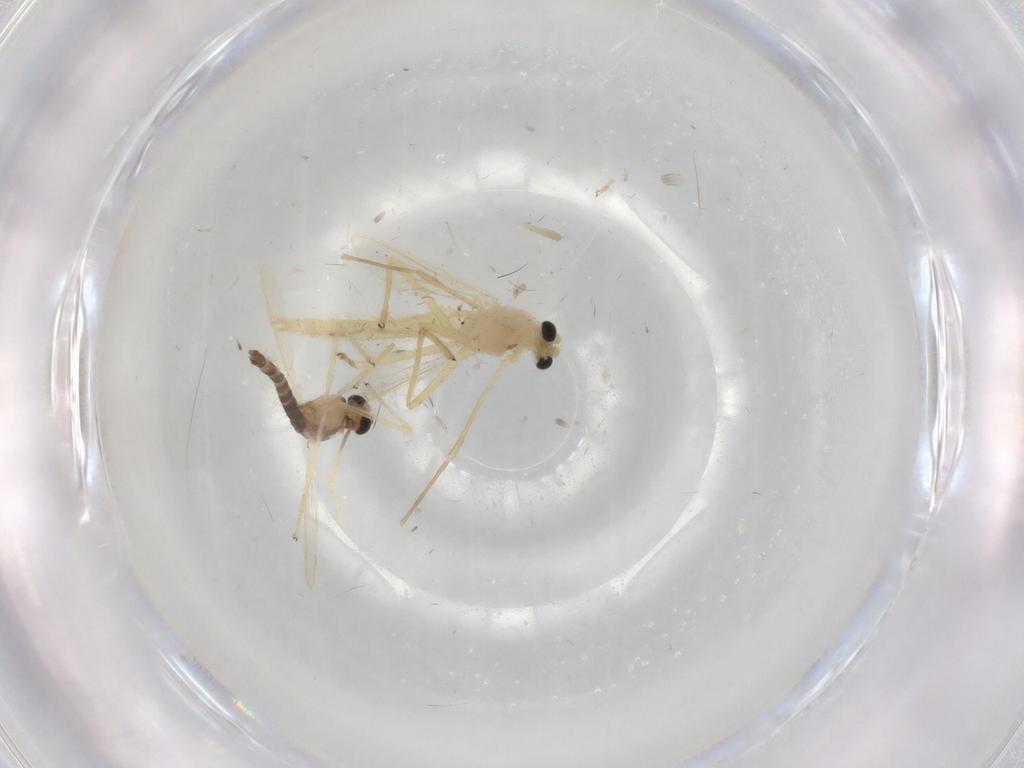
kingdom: Animalia
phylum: Arthropoda
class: Insecta
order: Diptera
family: Chironomidae
